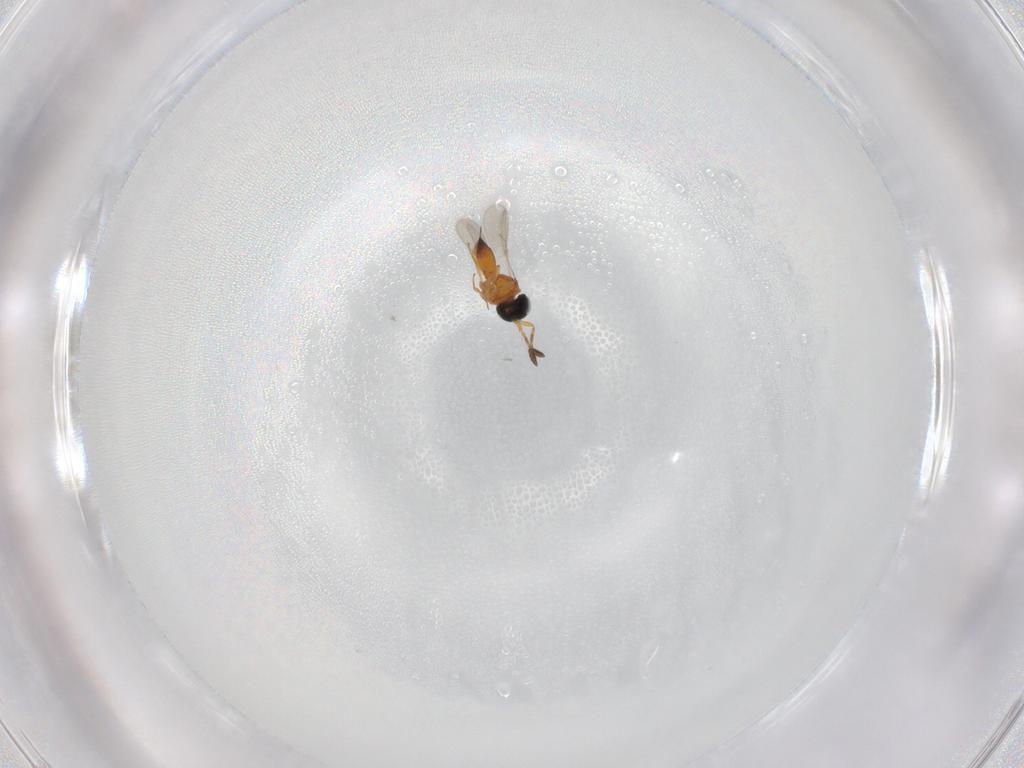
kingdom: Animalia
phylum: Arthropoda
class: Insecta
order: Hymenoptera
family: Scelionidae
